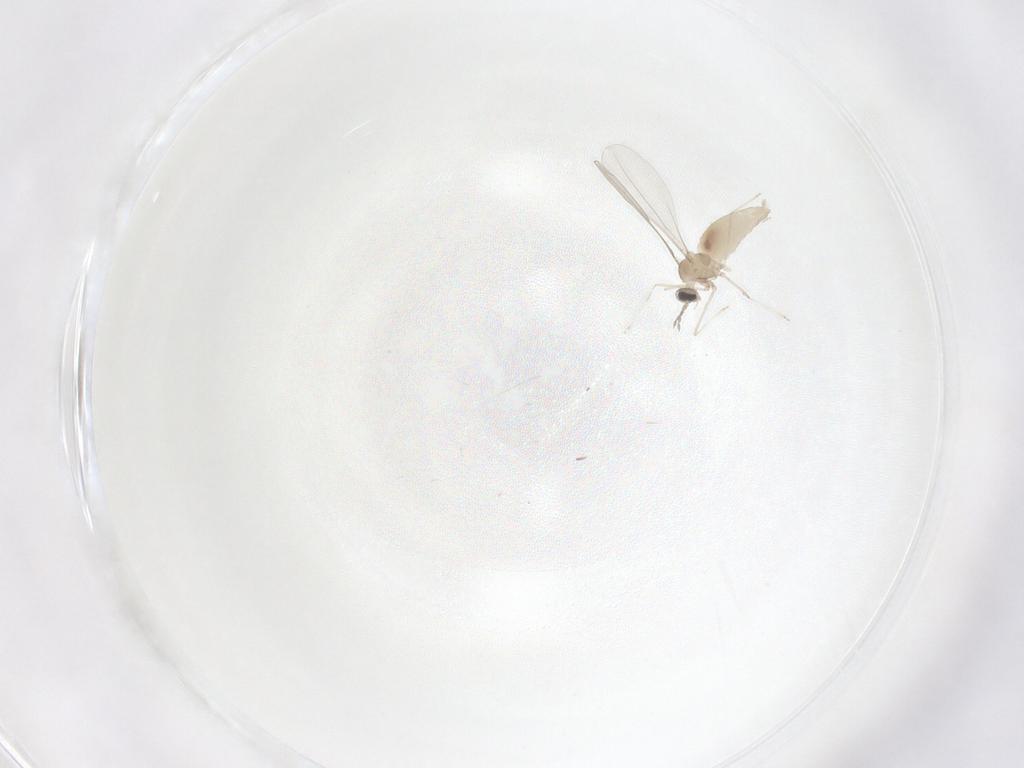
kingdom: Animalia
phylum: Arthropoda
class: Insecta
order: Diptera
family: Cecidomyiidae
